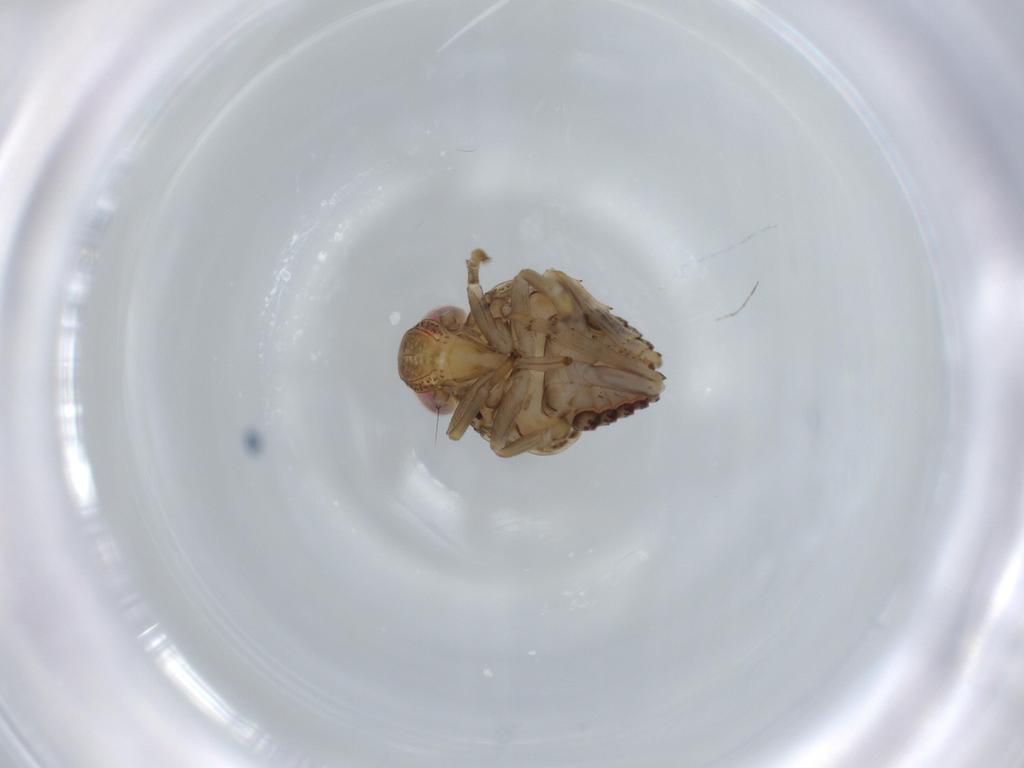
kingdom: Animalia
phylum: Arthropoda
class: Insecta
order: Hemiptera
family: Issidae
